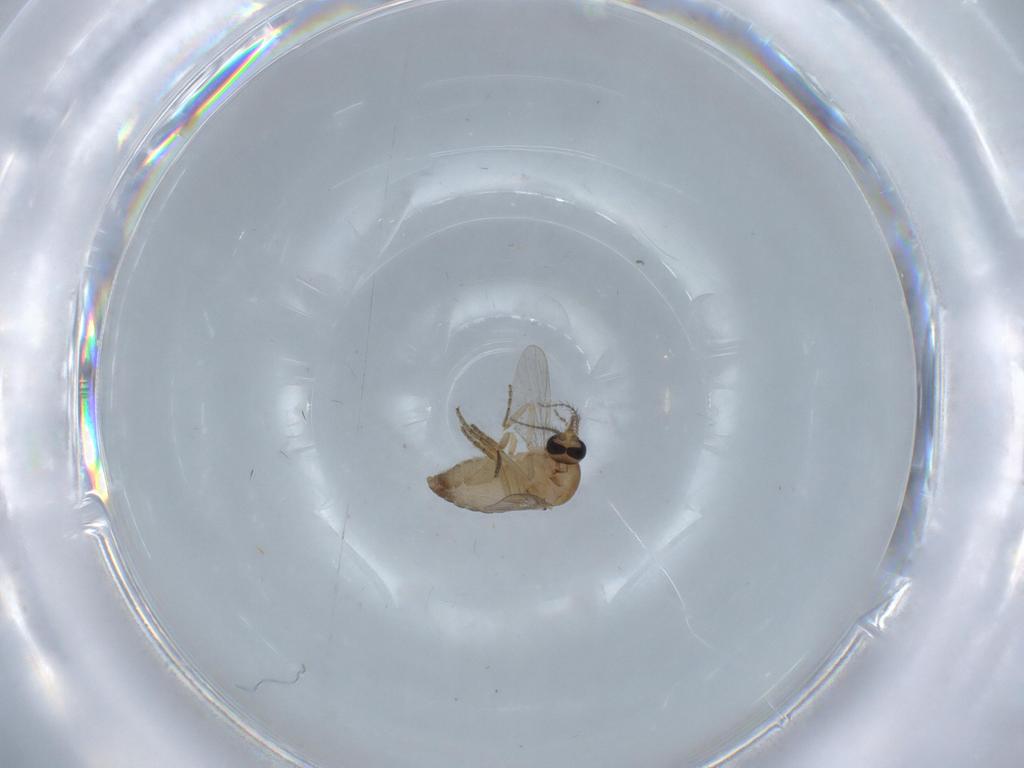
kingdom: Animalia
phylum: Arthropoda
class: Insecta
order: Diptera
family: Ceratopogonidae
